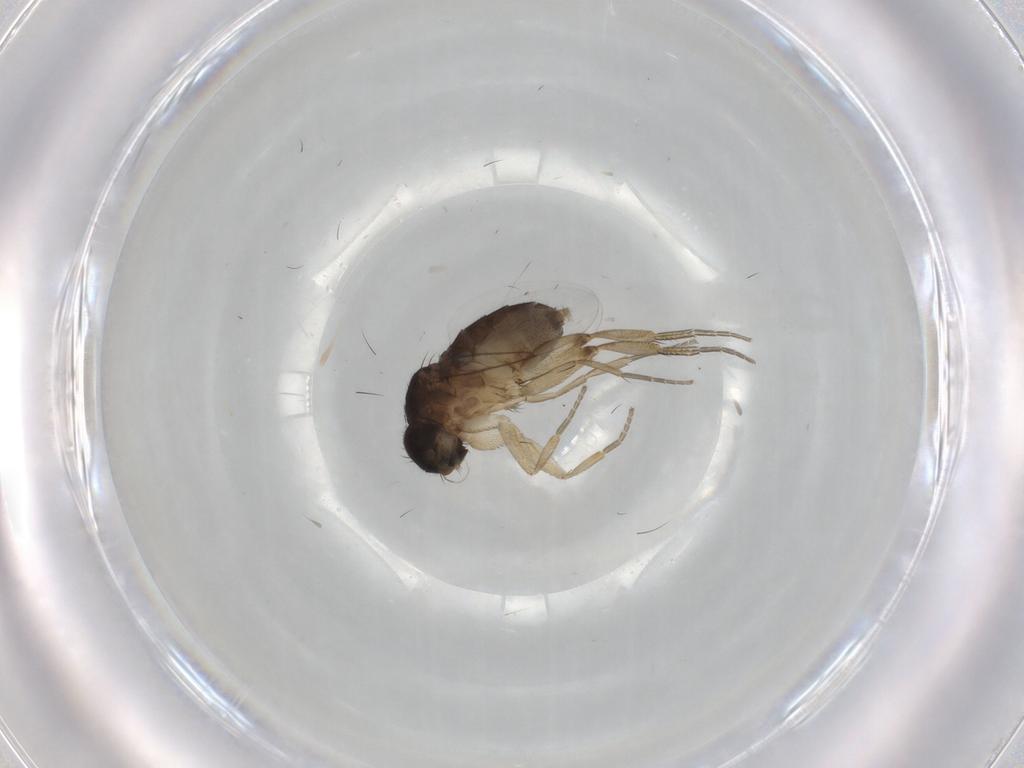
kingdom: Animalia
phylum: Arthropoda
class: Insecta
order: Diptera
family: Phoridae
